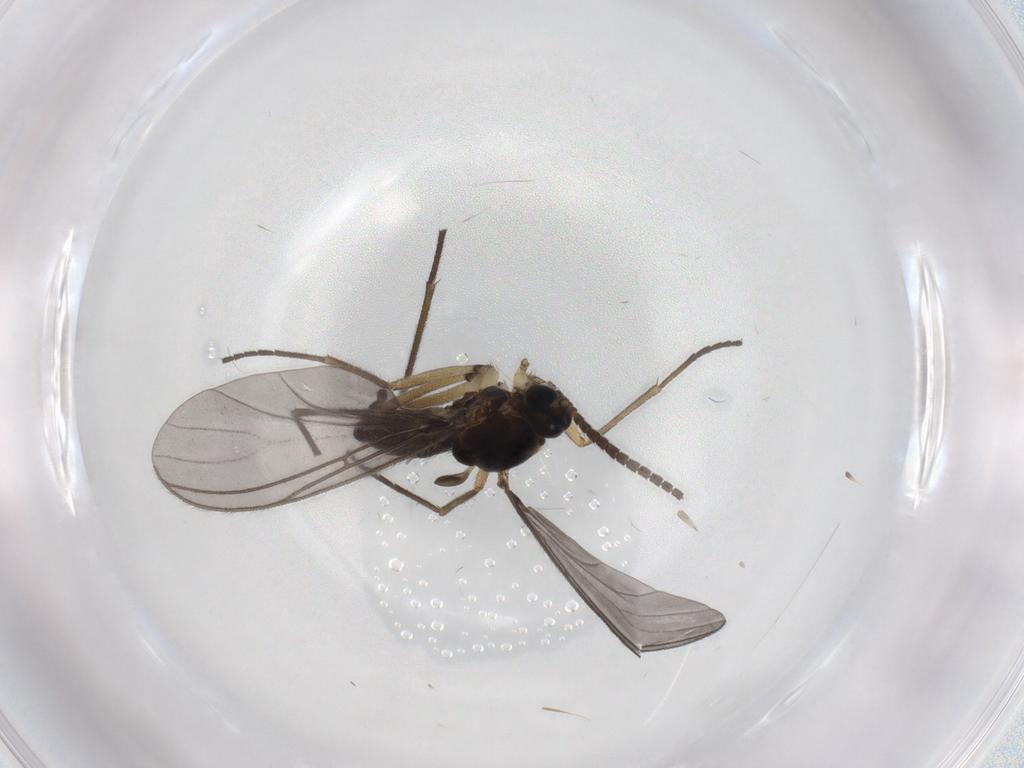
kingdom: Animalia
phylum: Arthropoda
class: Insecta
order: Diptera
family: Sciaridae
